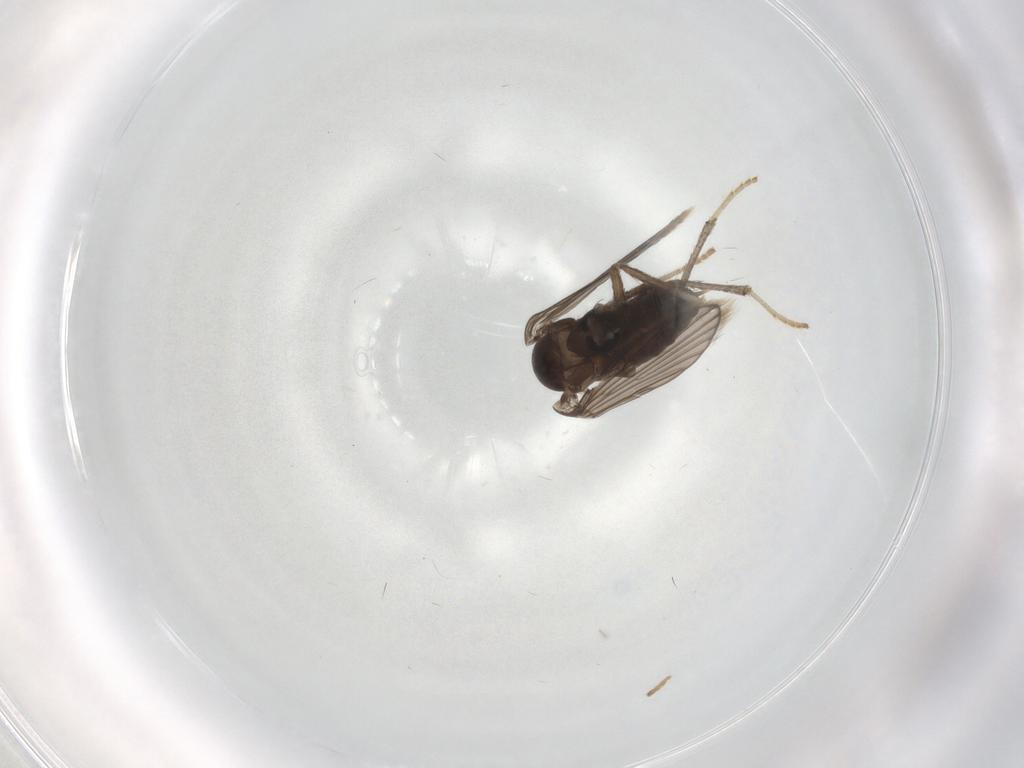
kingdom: Animalia
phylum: Arthropoda
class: Insecta
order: Diptera
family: Psychodidae
